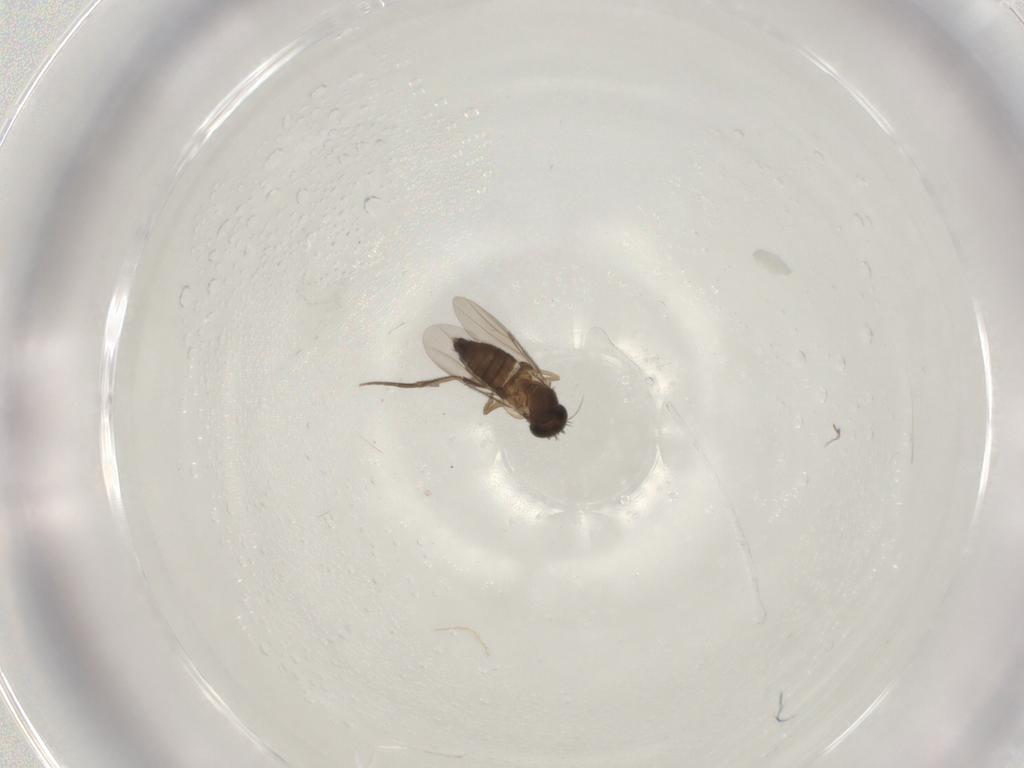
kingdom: Animalia
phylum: Arthropoda
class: Insecta
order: Diptera
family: Phoridae
